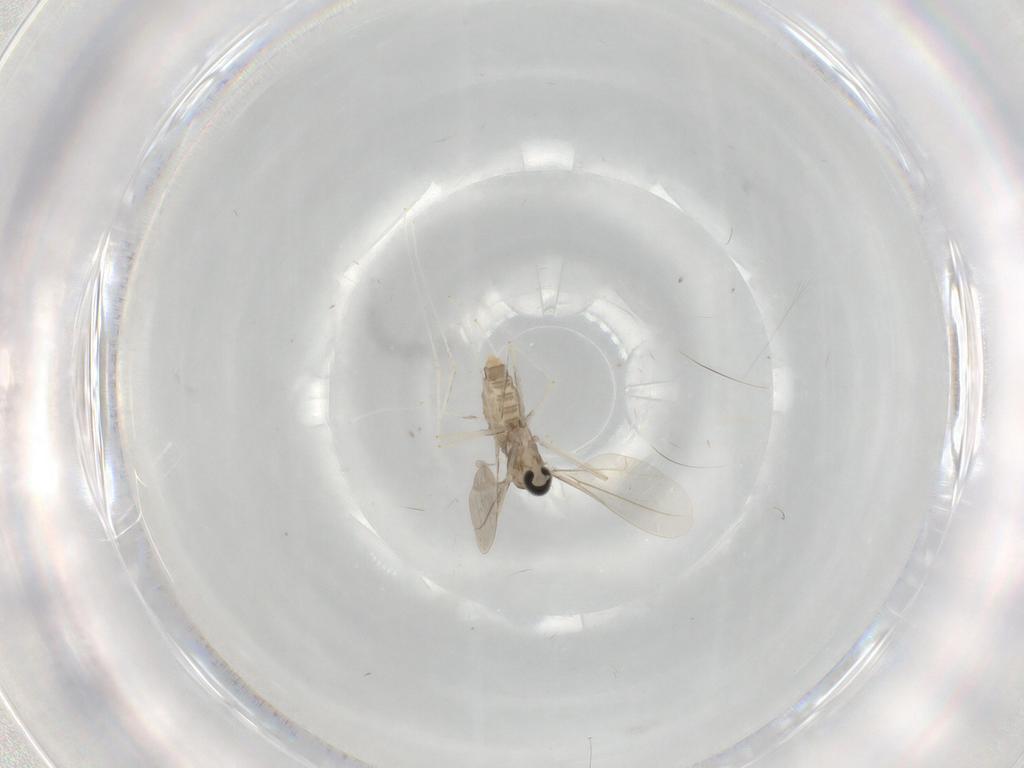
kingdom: Animalia
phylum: Arthropoda
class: Insecta
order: Diptera
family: Cecidomyiidae
